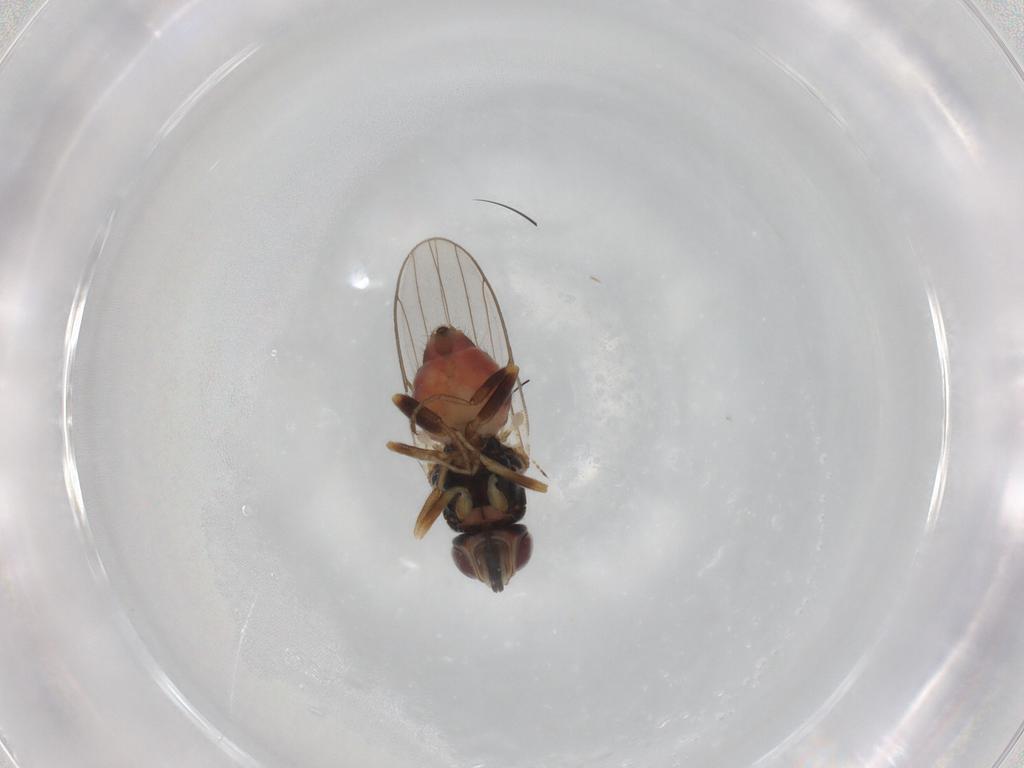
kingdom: Animalia
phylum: Arthropoda
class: Insecta
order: Diptera
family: Chloropidae
